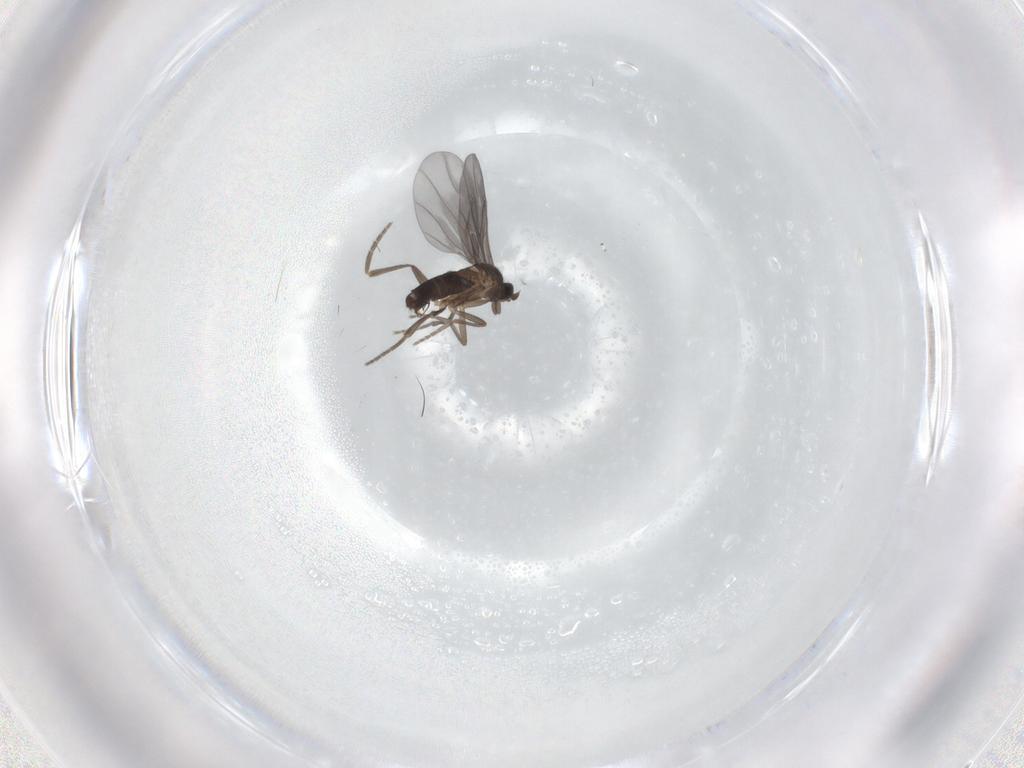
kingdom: Animalia
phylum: Arthropoda
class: Insecta
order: Diptera
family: Phoridae
